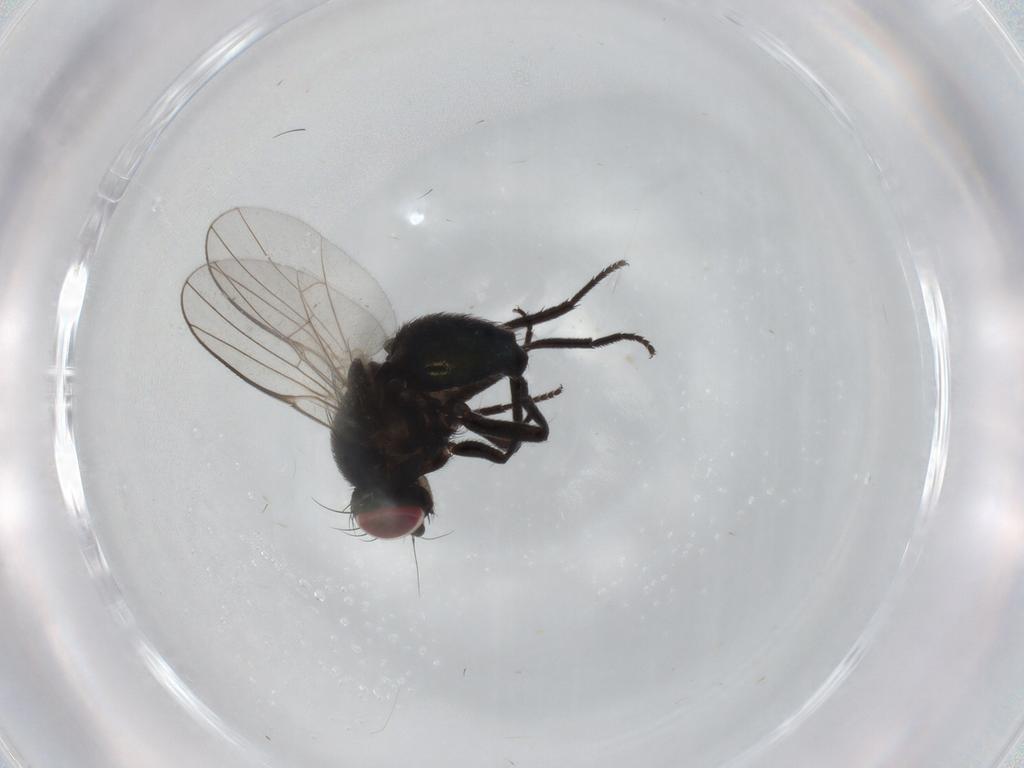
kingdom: Animalia
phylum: Arthropoda
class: Insecta
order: Diptera
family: Agromyzidae
